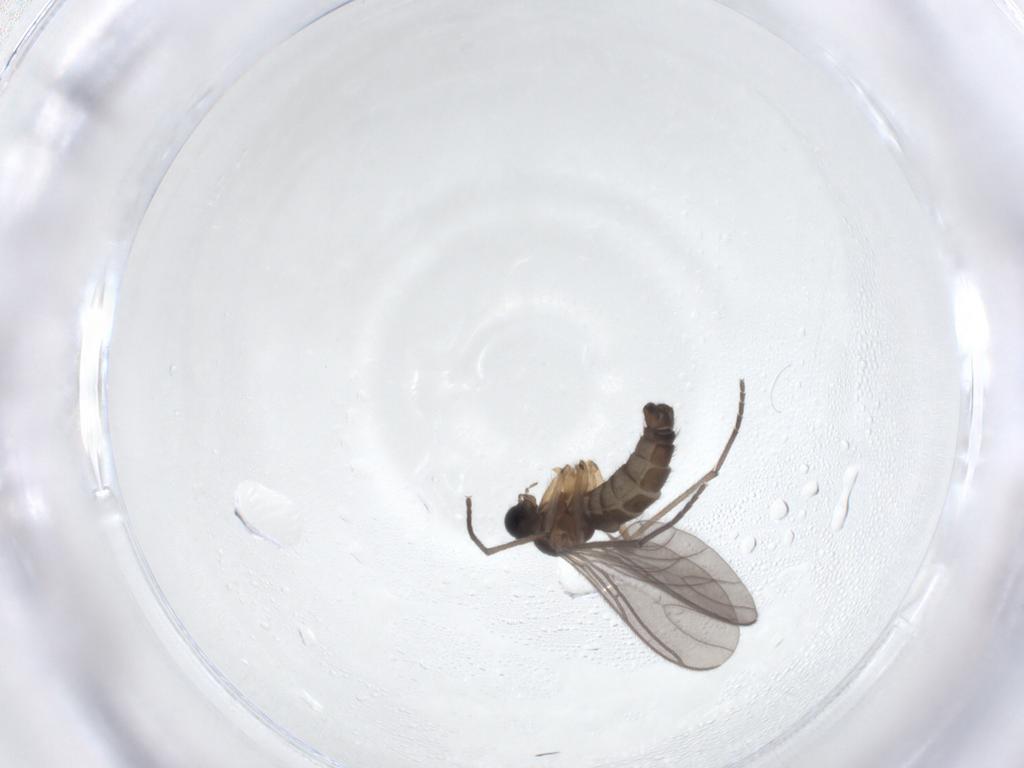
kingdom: Animalia
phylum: Arthropoda
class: Insecta
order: Diptera
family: Sciaridae
